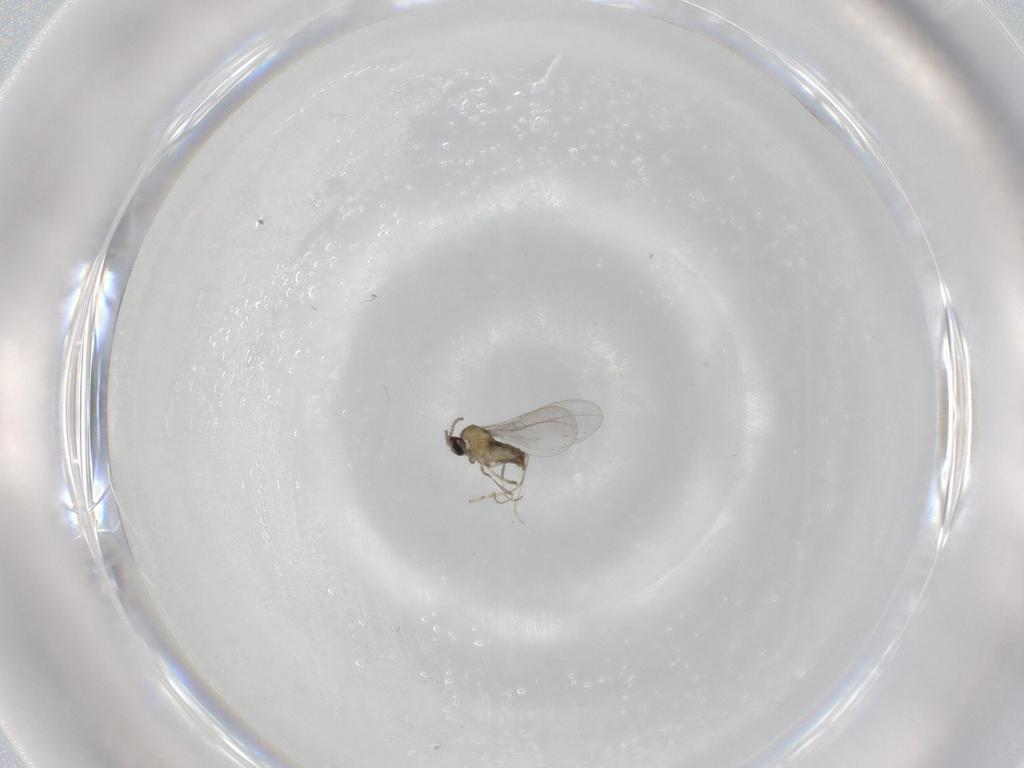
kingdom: Animalia
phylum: Arthropoda
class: Insecta
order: Diptera
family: Cecidomyiidae
